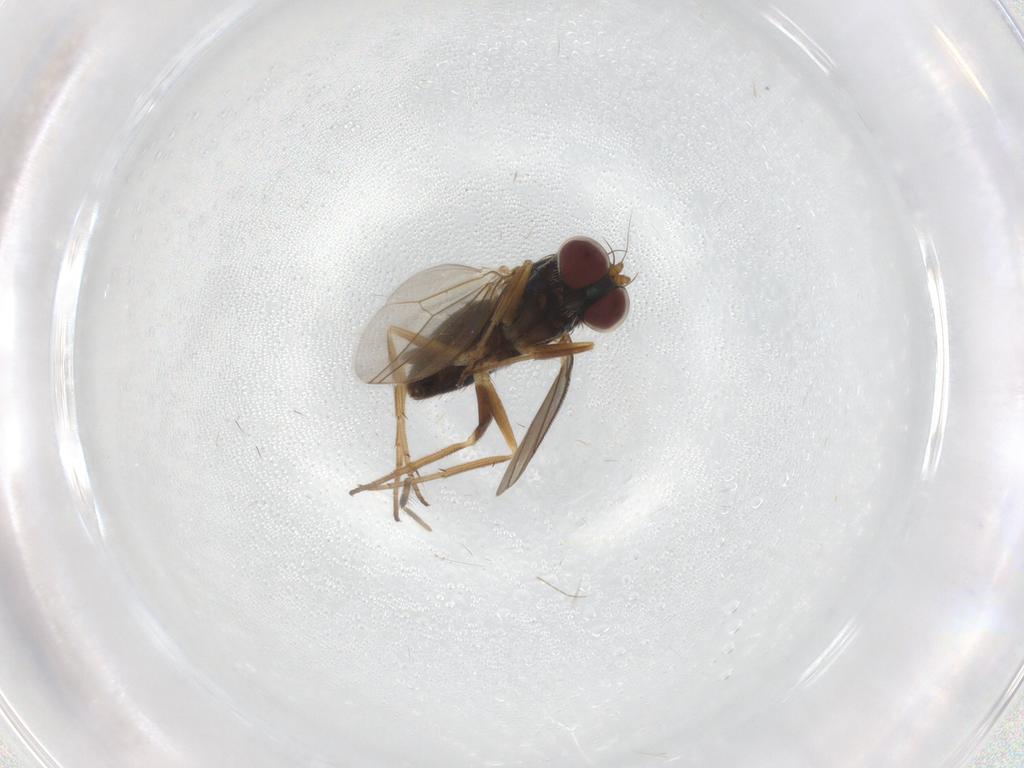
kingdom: Animalia
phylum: Arthropoda
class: Insecta
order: Diptera
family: Dolichopodidae
